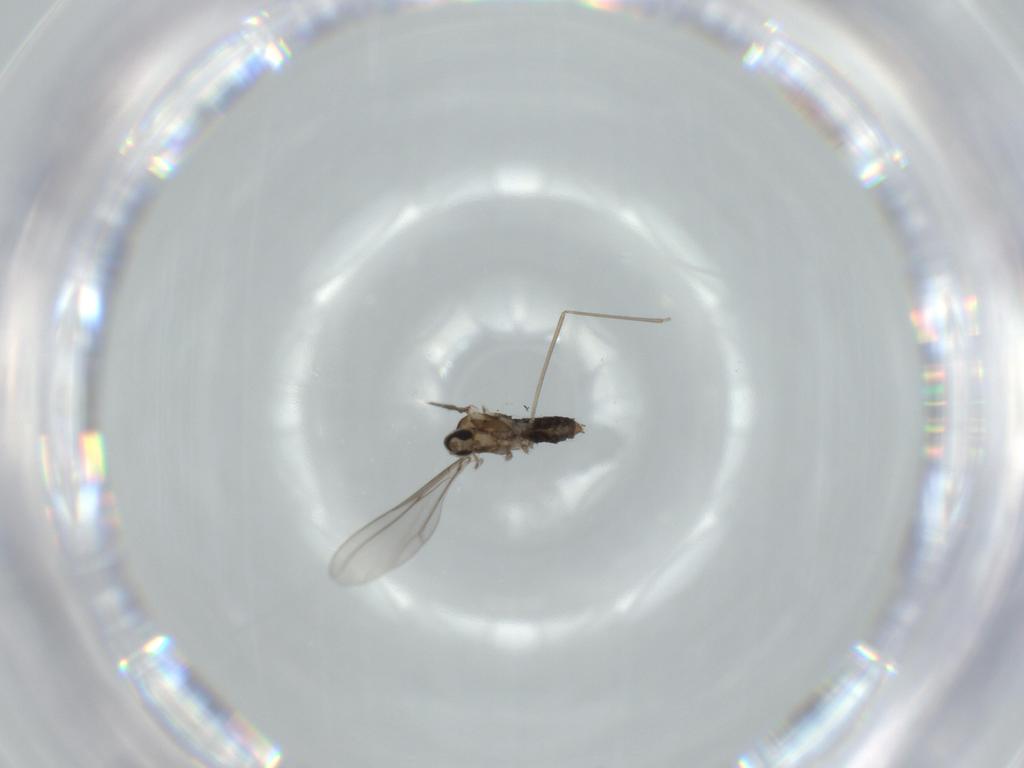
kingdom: Animalia
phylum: Arthropoda
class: Insecta
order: Diptera
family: Cecidomyiidae
